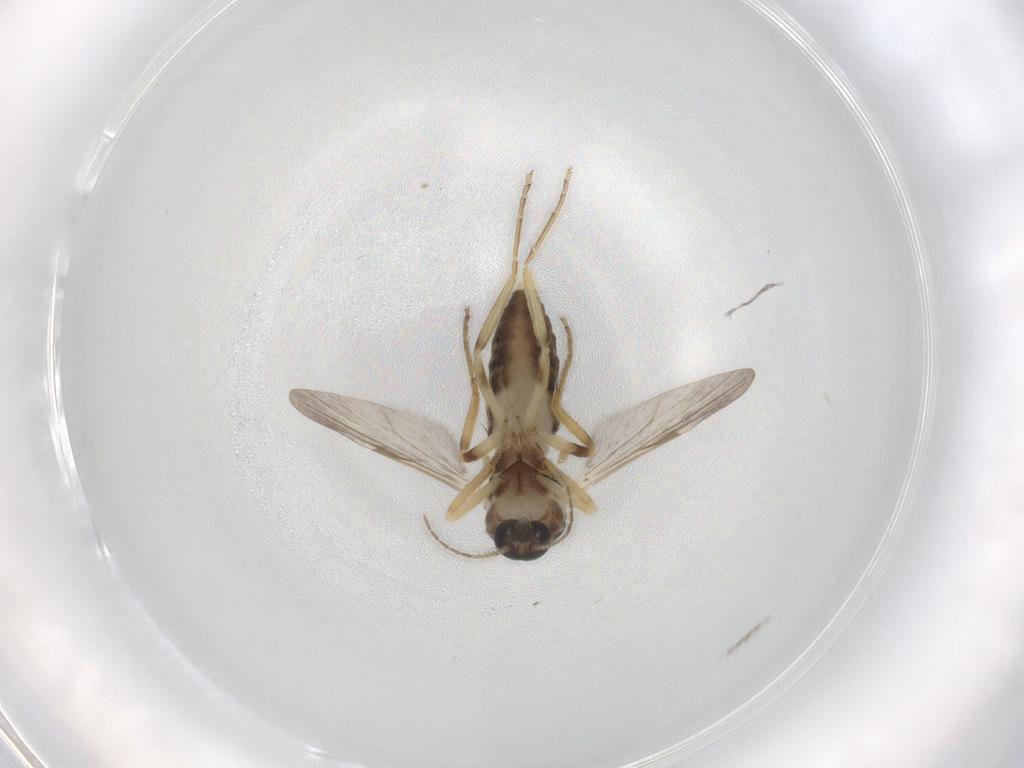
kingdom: Animalia
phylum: Arthropoda
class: Insecta
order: Diptera
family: Ceratopogonidae
